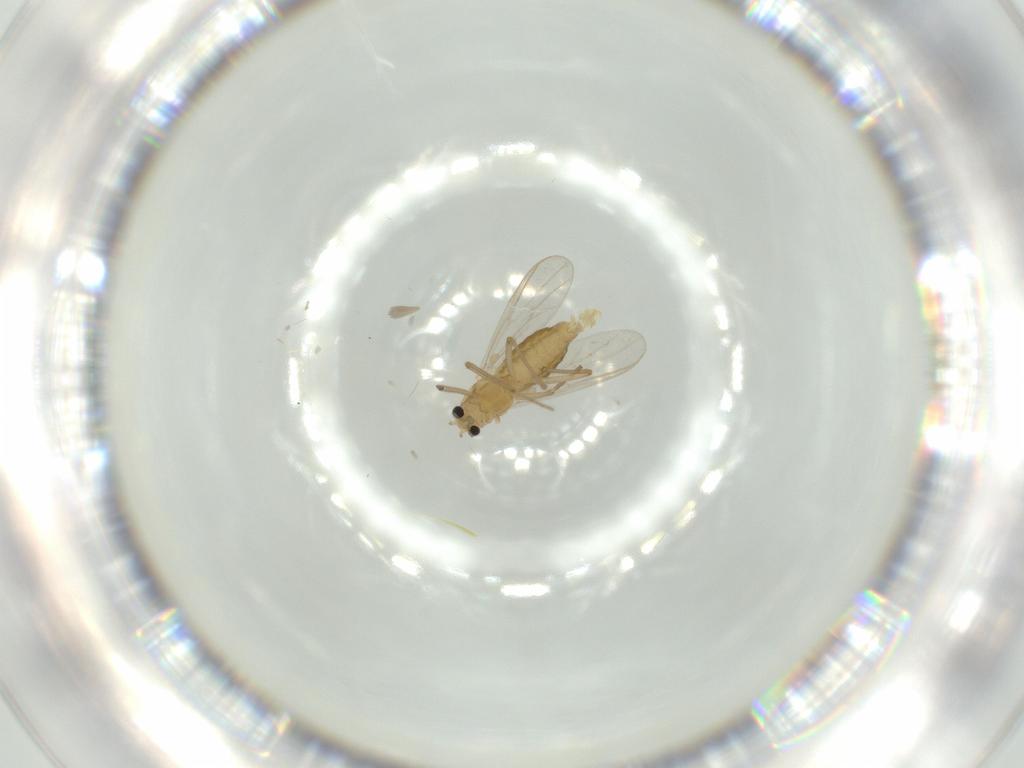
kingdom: Animalia
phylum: Arthropoda
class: Insecta
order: Diptera
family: Chironomidae
